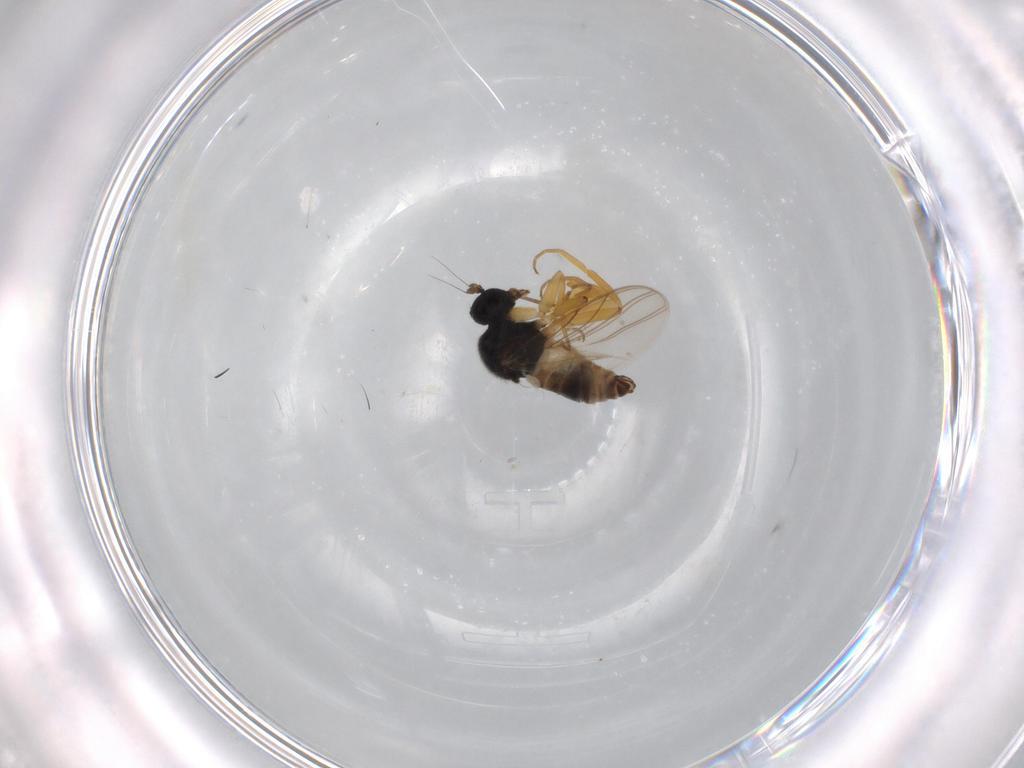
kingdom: Animalia
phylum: Arthropoda
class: Insecta
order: Diptera
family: Sciaridae
